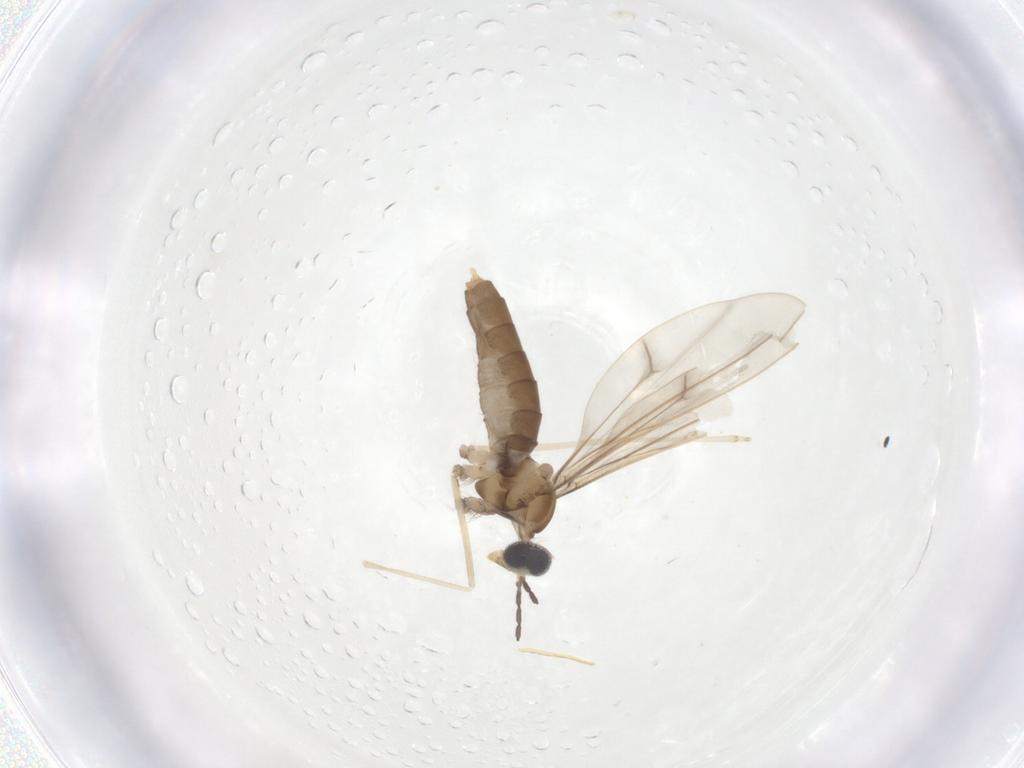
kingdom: Animalia
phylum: Arthropoda
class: Insecta
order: Diptera
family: Cecidomyiidae
